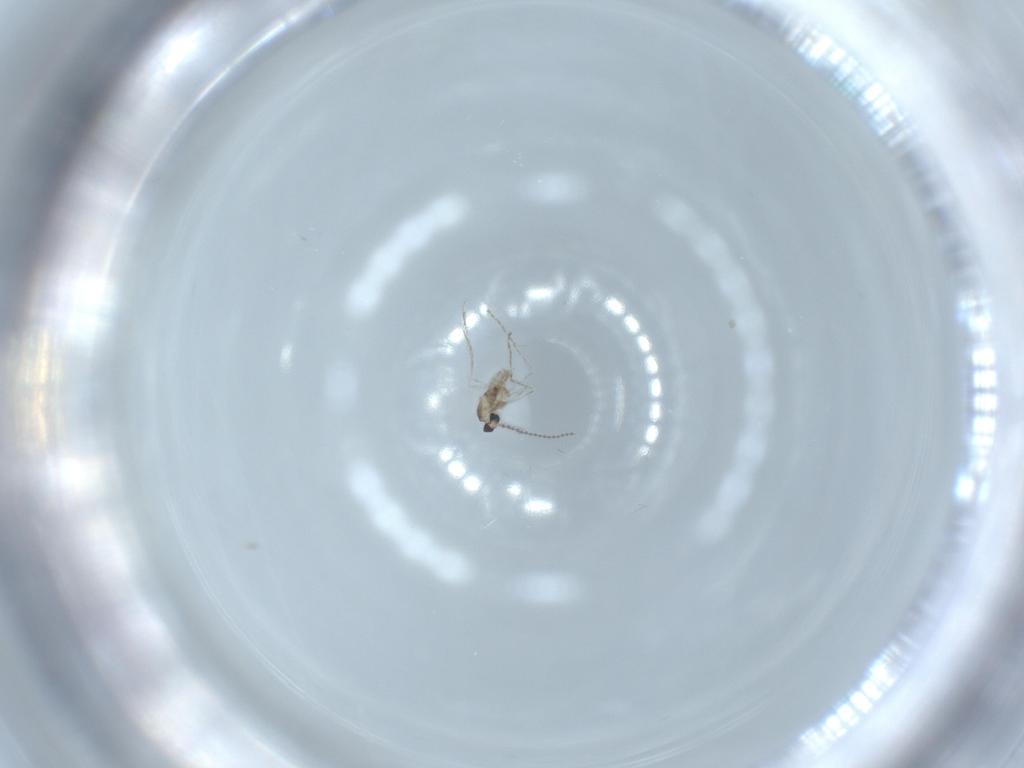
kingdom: Animalia
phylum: Arthropoda
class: Insecta
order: Diptera
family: Cecidomyiidae
